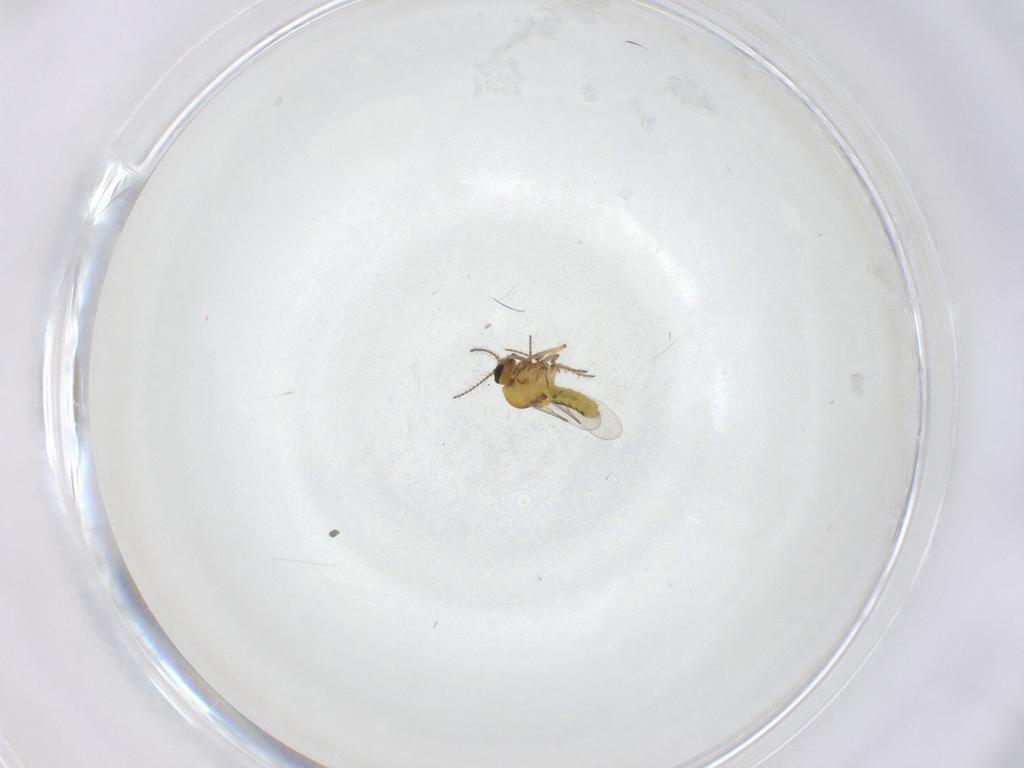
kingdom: Animalia
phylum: Arthropoda
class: Insecta
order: Diptera
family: Ceratopogonidae
